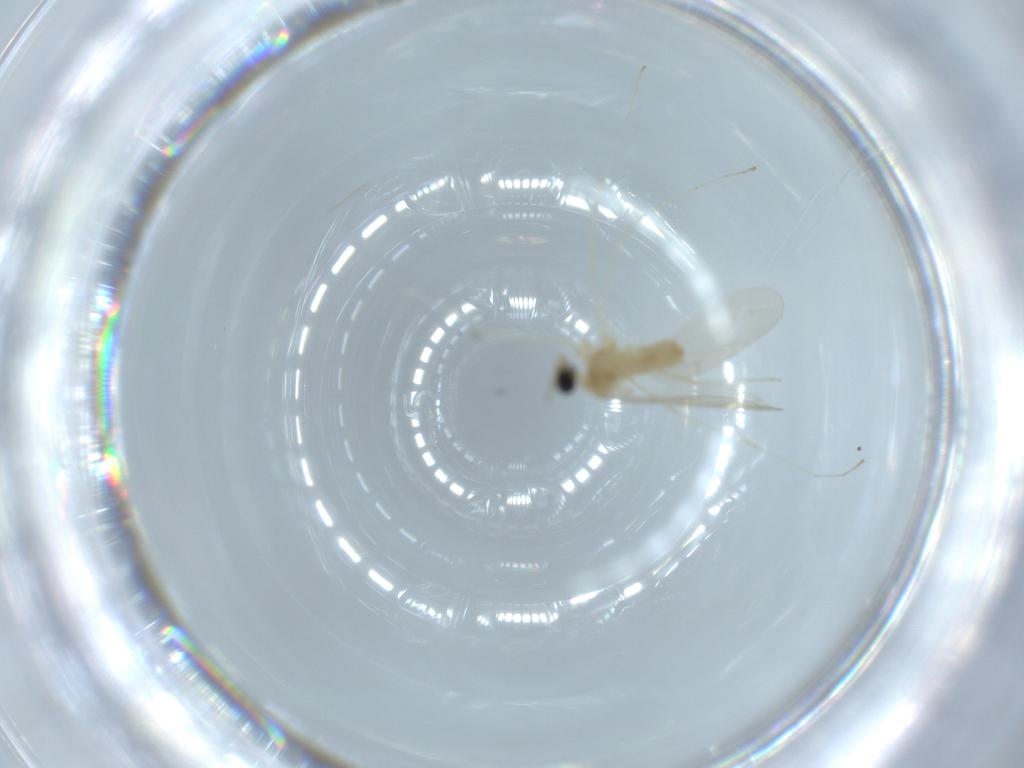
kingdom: Animalia
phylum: Arthropoda
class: Insecta
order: Diptera
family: Cecidomyiidae
